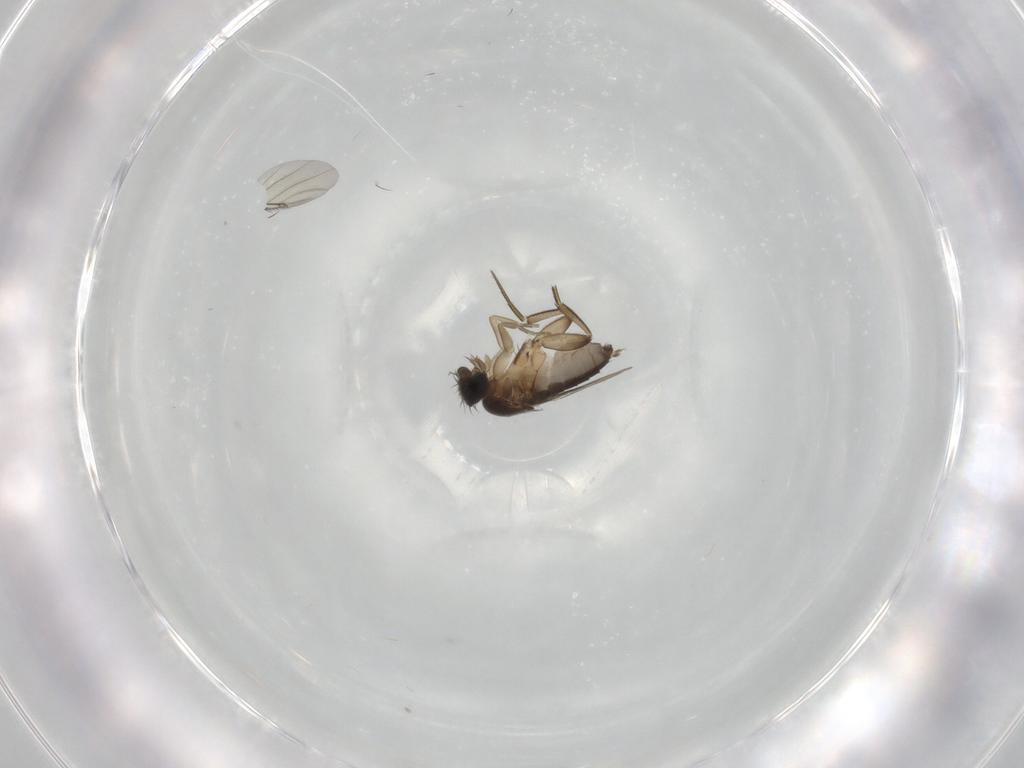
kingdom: Animalia
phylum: Arthropoda
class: Insecta
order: Diptera
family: Phoridae
